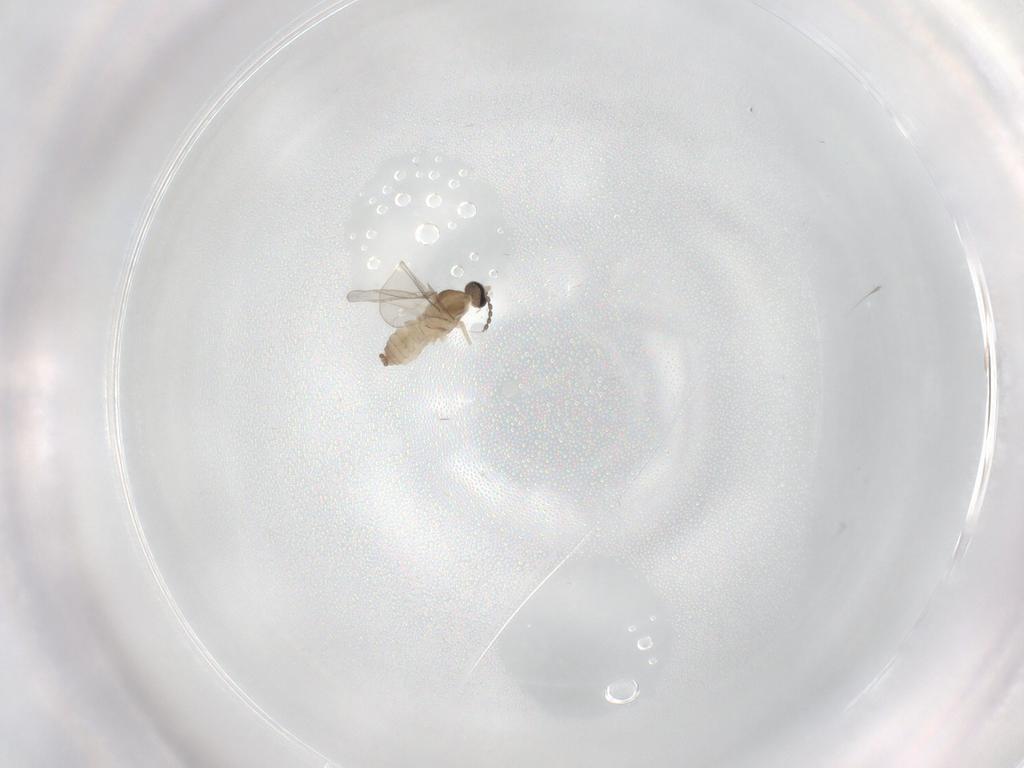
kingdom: Animalia
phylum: Arthropoda
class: Insecta
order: Diptera
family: Cecidomyiidae
